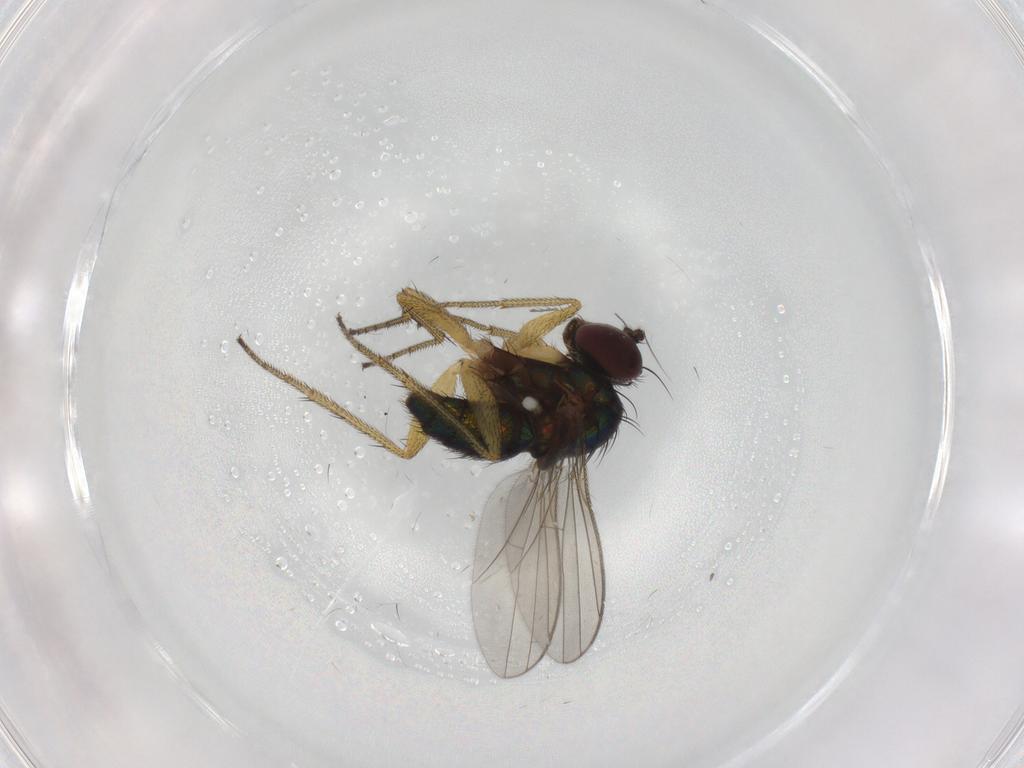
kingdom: Animalia
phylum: Arthropoda
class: Insecta
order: Diptera
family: Dolichopodidae
